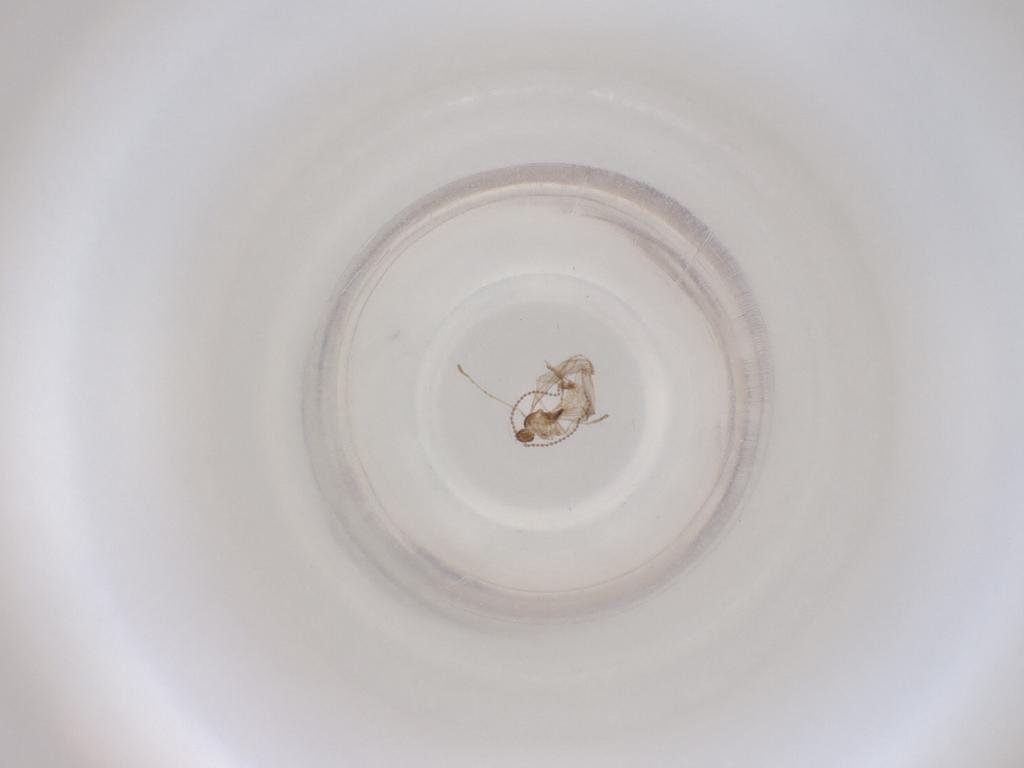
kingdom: Animalia
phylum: Arthropoda
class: Insecta
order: Diptera
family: Cecidomyiidae
